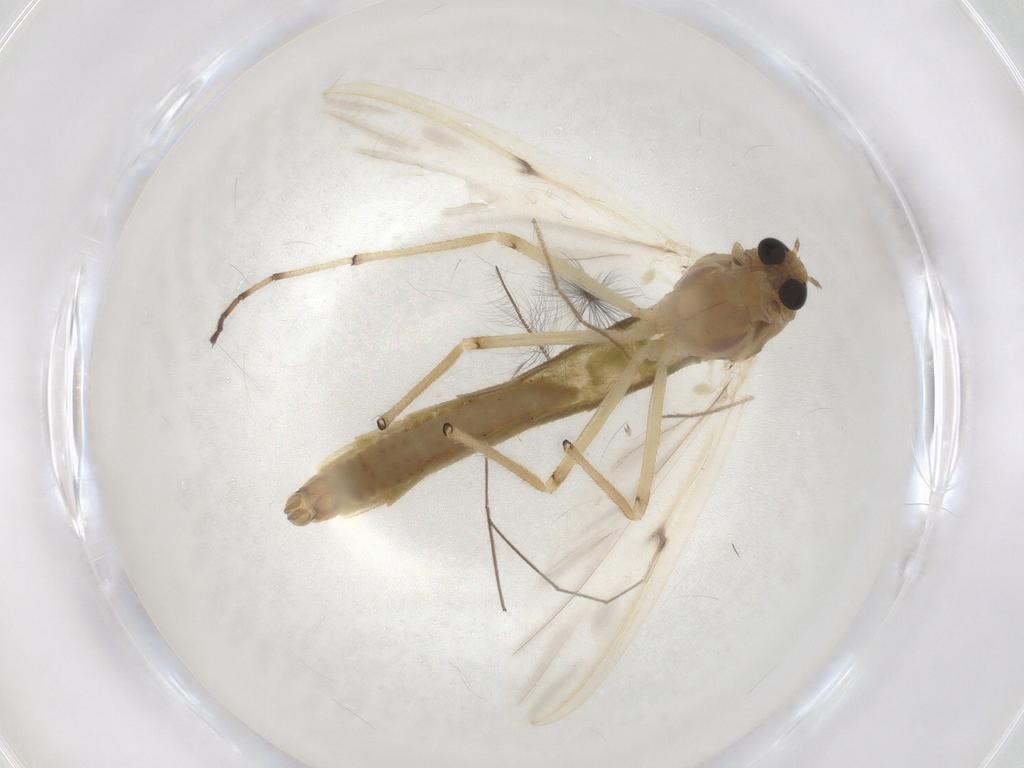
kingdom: Animalia
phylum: Arthropoda
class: Insecta
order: Diptera
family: Chironomidae
